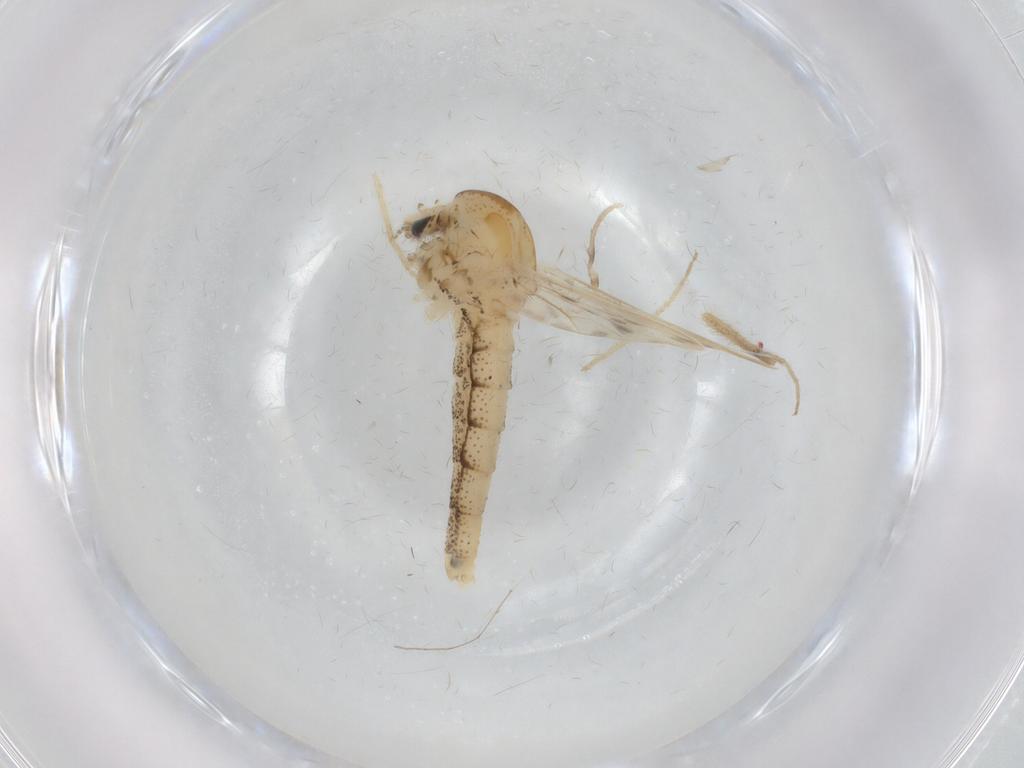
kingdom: Animalia
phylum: Arthropoda
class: Insecta
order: Diptera
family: Chaoboridae
